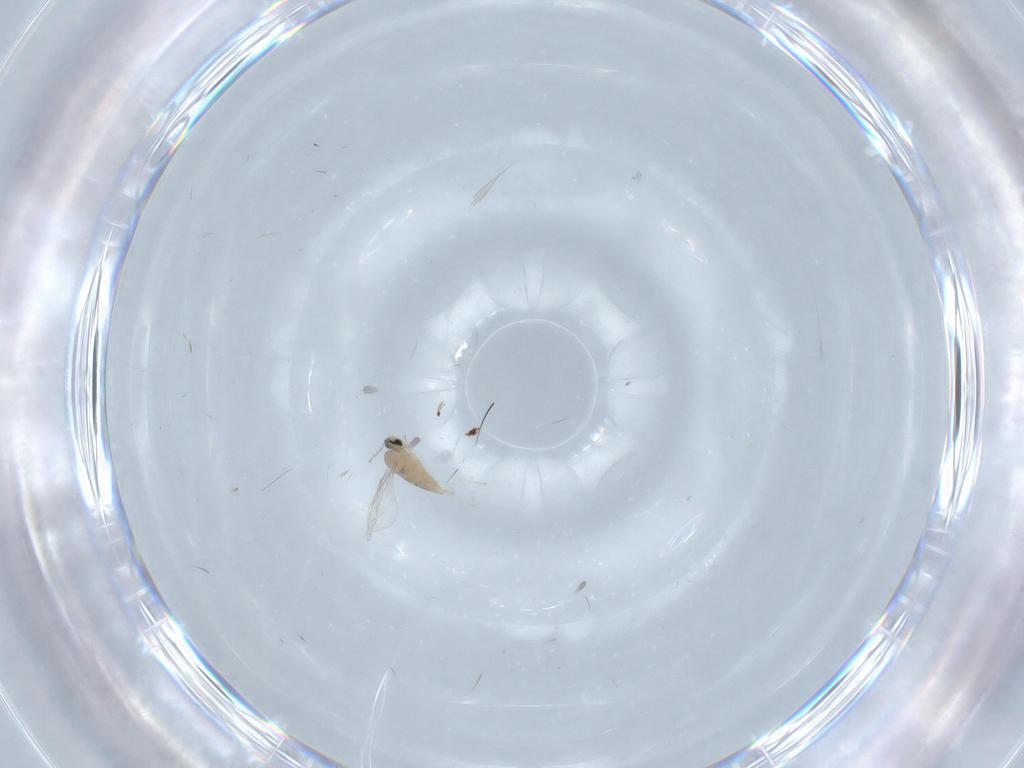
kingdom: Animalia
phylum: Arthropoda
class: Insecta
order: Diptera
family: Cecidomyiidae
